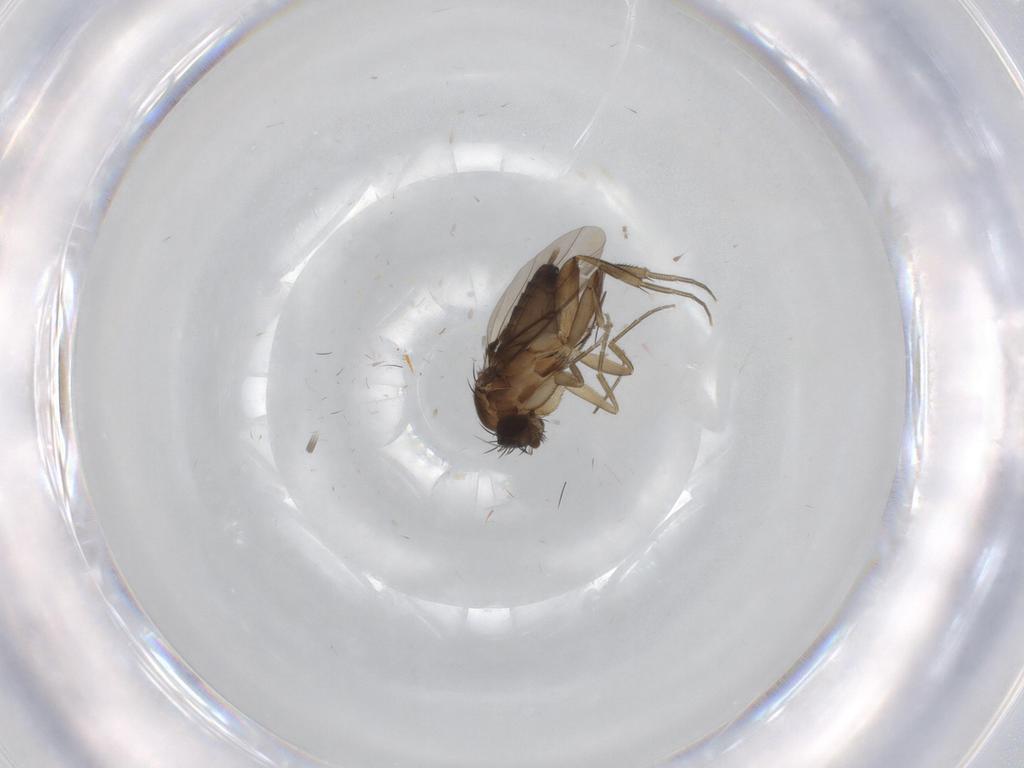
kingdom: Animalia
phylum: Arthropoda
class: Insecta
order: Diptera
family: Phoridae
